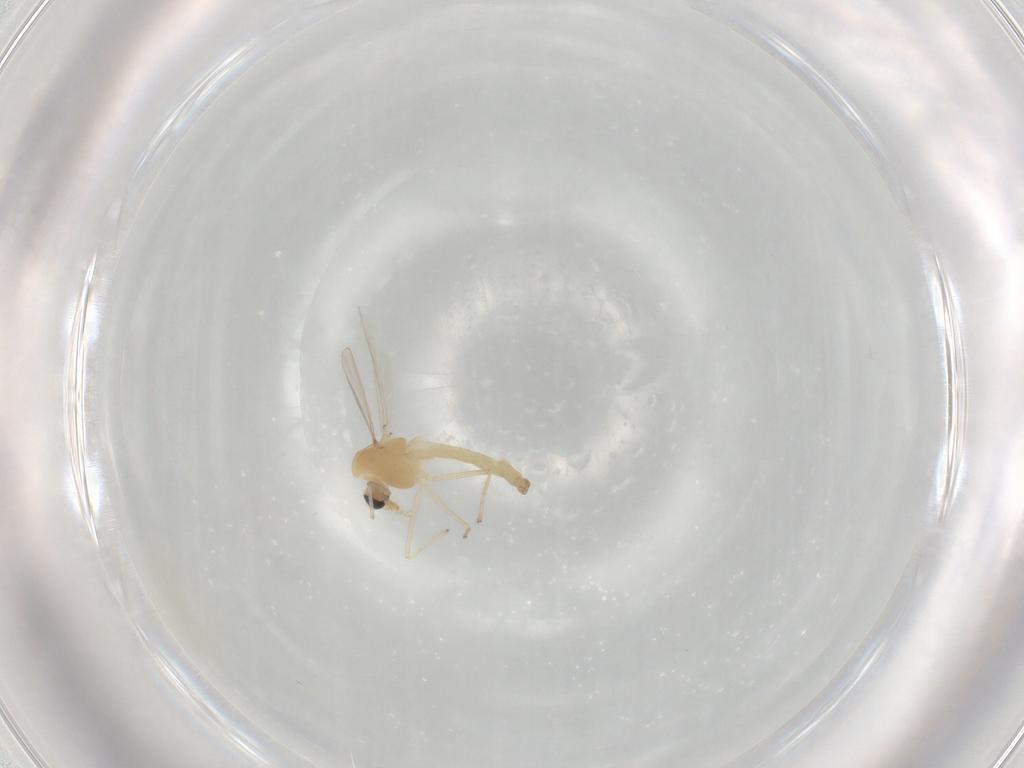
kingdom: Animalia
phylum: Arthropoda
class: Insecta
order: Diptera
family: Chironomidae
